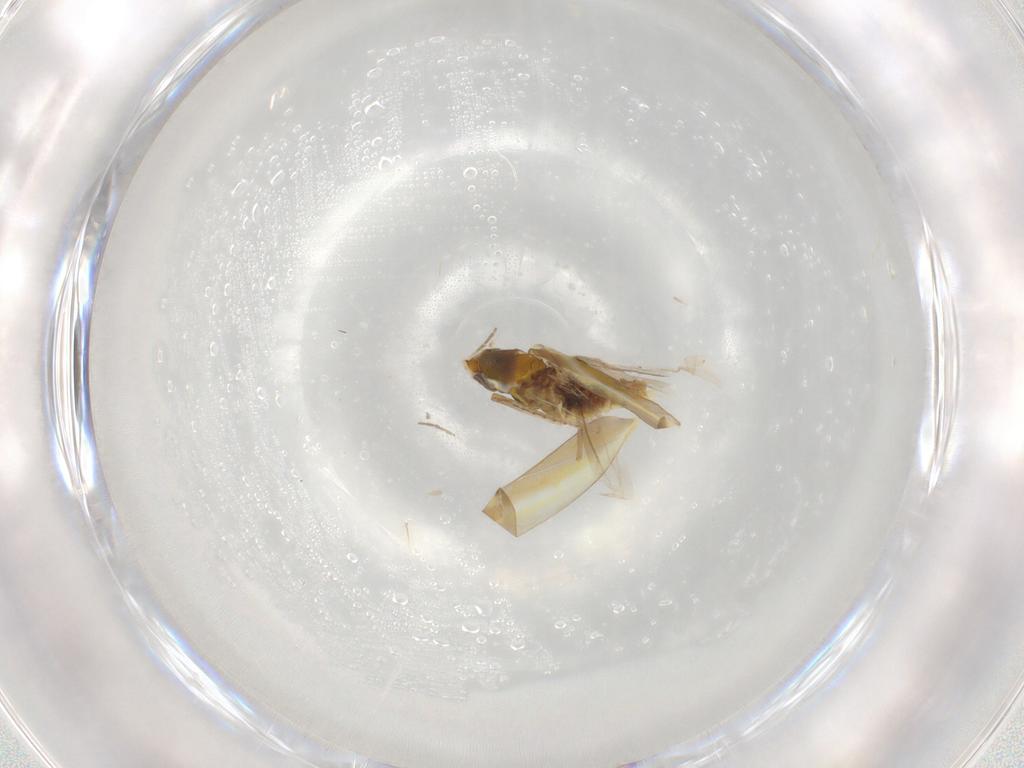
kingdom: Animalia
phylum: Arthropoda
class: Insecta
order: Hemiptera
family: Cicadellidae
